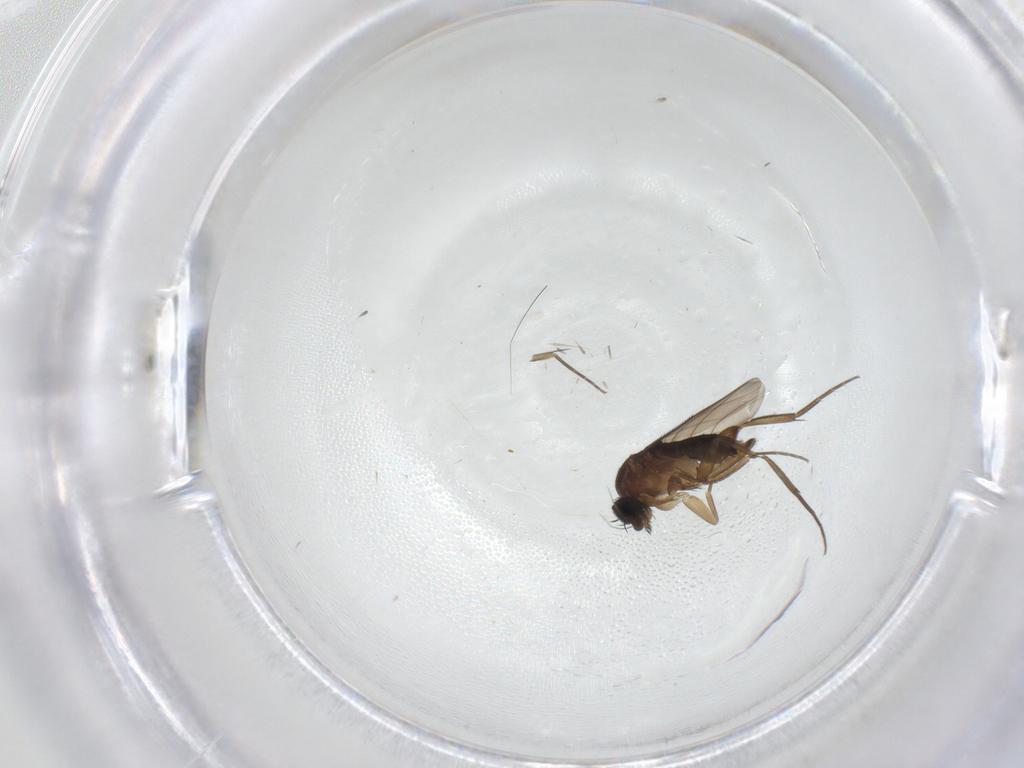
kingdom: Animalia
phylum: Arthropoda
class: Insecta
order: Diptera
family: Phoridae
